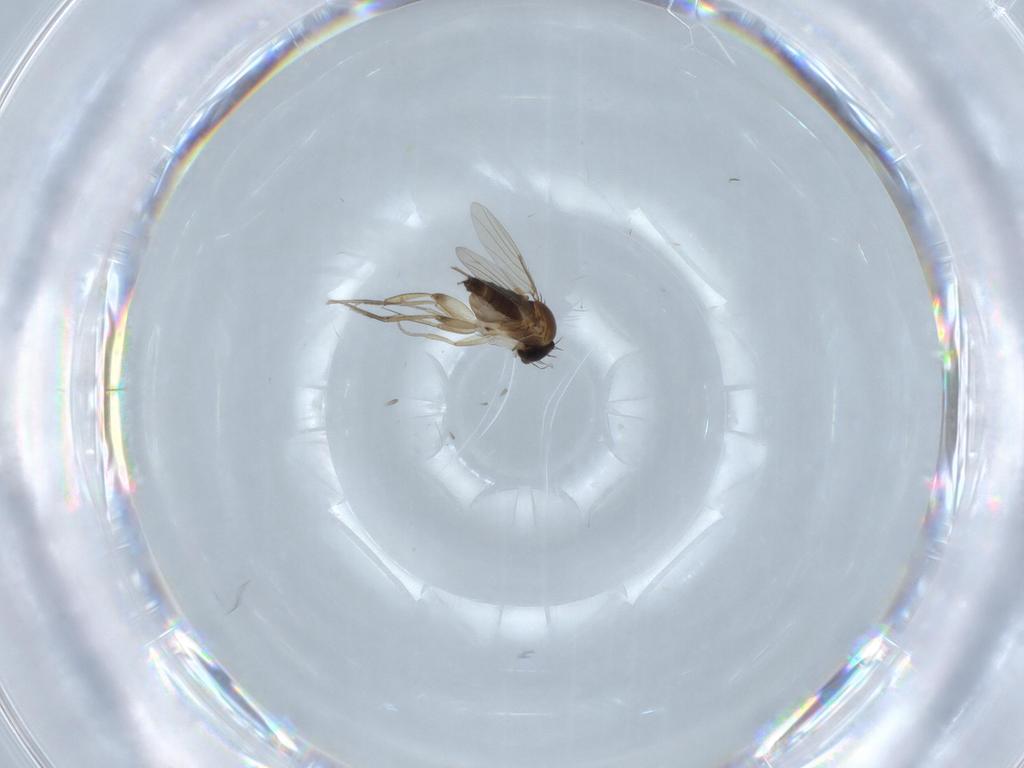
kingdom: Animalia
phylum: Arthropoda
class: Insecta
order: Diptera
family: Phoridae
